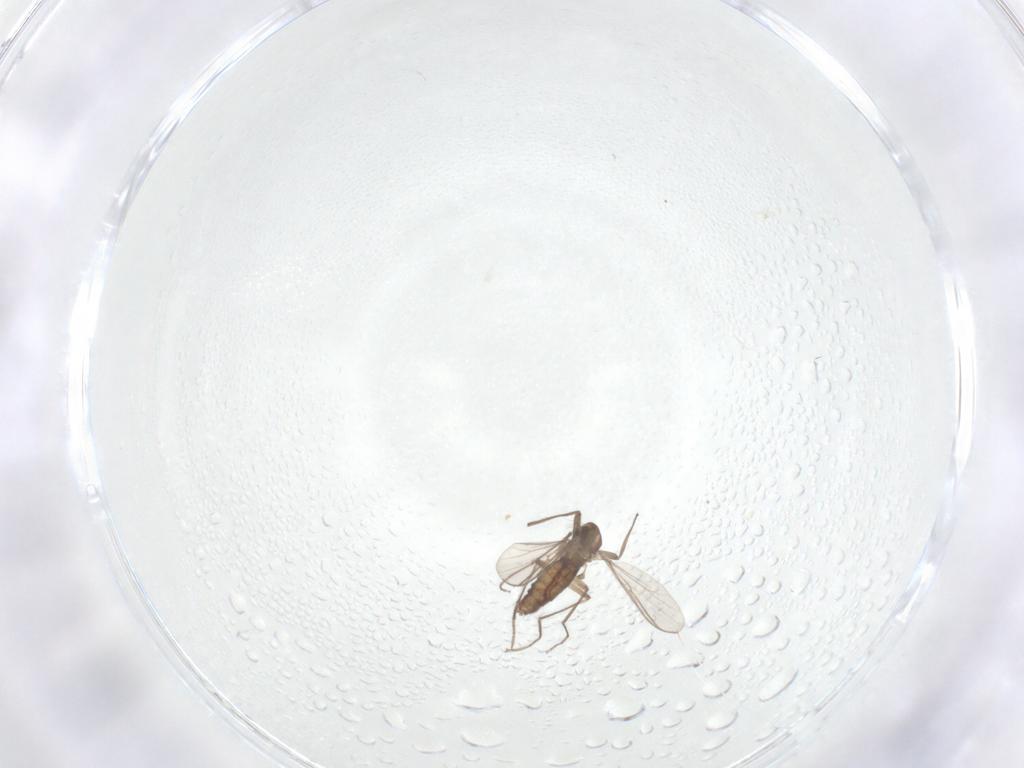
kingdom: Animalia
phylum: Arthropoda
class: Insecta
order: Diptera
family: Chironomidae
